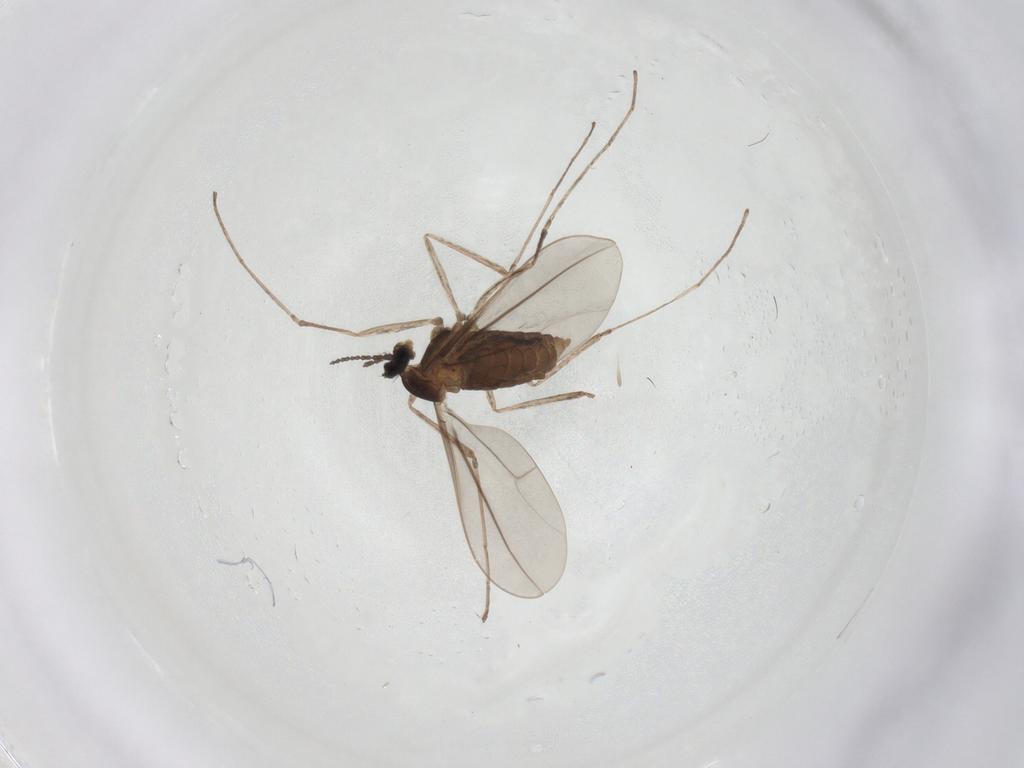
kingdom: Animalia
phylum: Arthropoda
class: Insecta
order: Diptera
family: Cecidomyiidae
